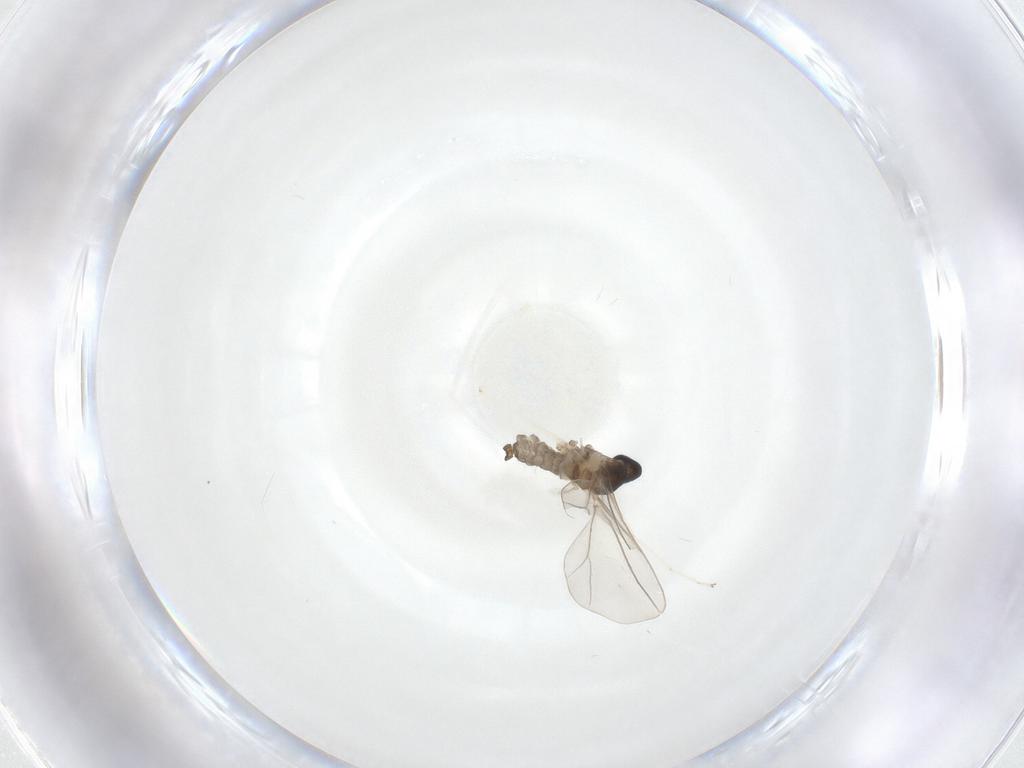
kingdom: Animalia
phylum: Arthropoda
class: Insecta
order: Diptera
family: Cecidomyiidae
